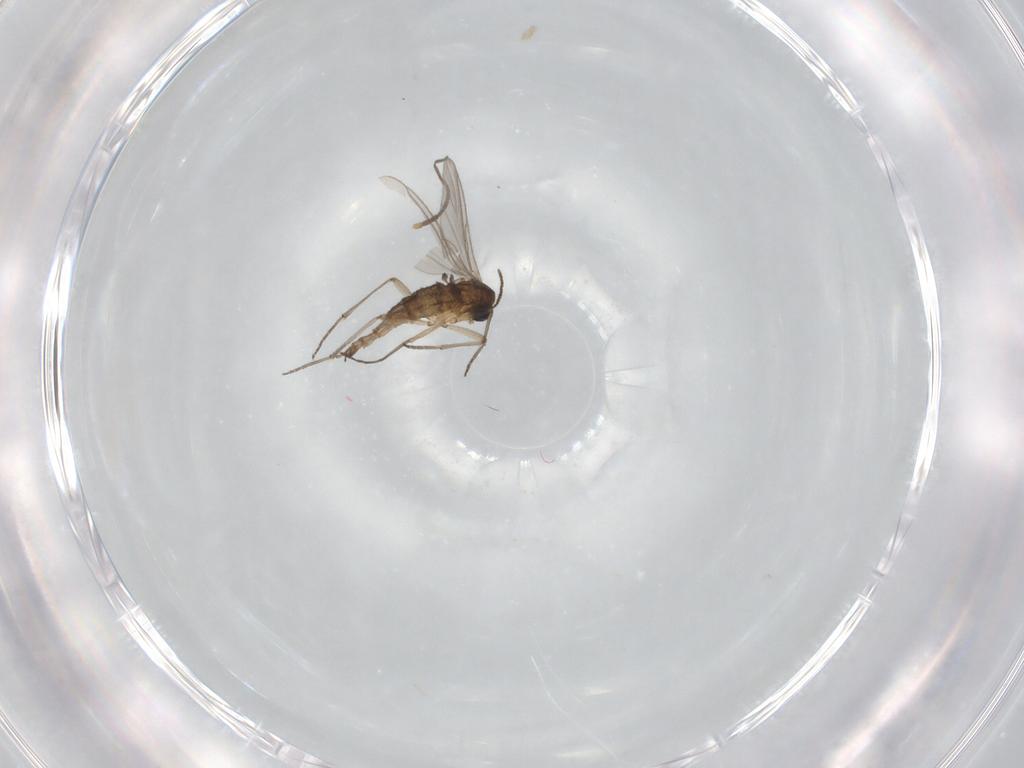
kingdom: Animalia
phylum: Arthropoda
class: Insecta
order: Diptera
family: Sciaridae
